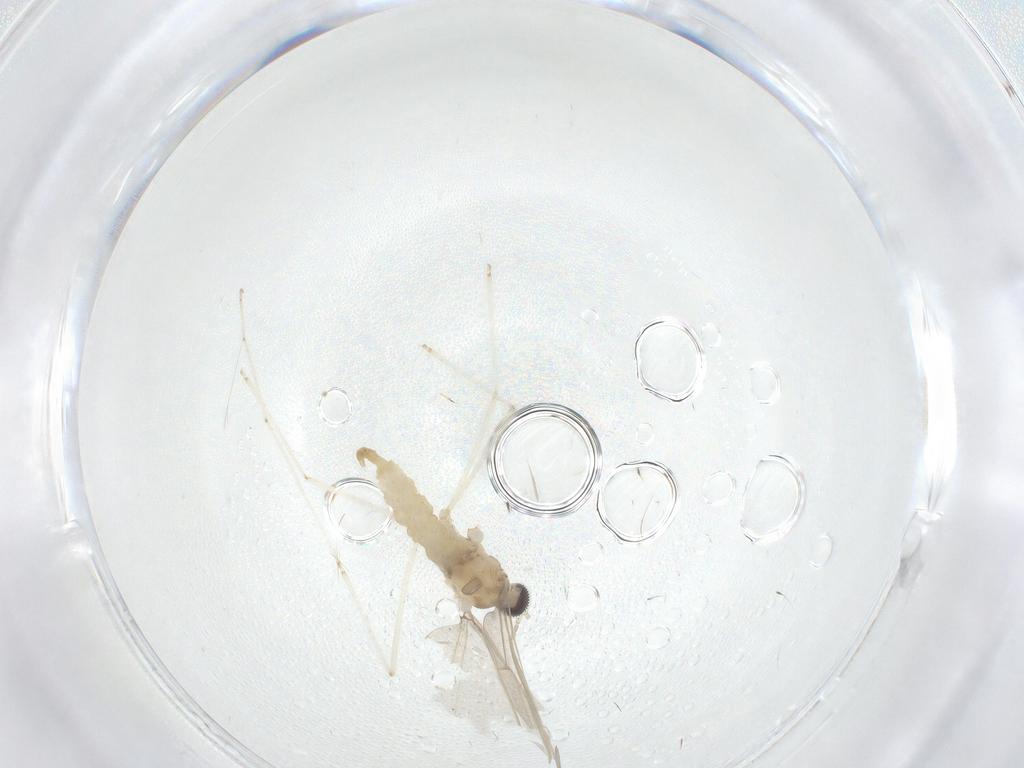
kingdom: Animalia
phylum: Arthropoda
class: Insecta
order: Diptera
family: Cecidomyiidae
